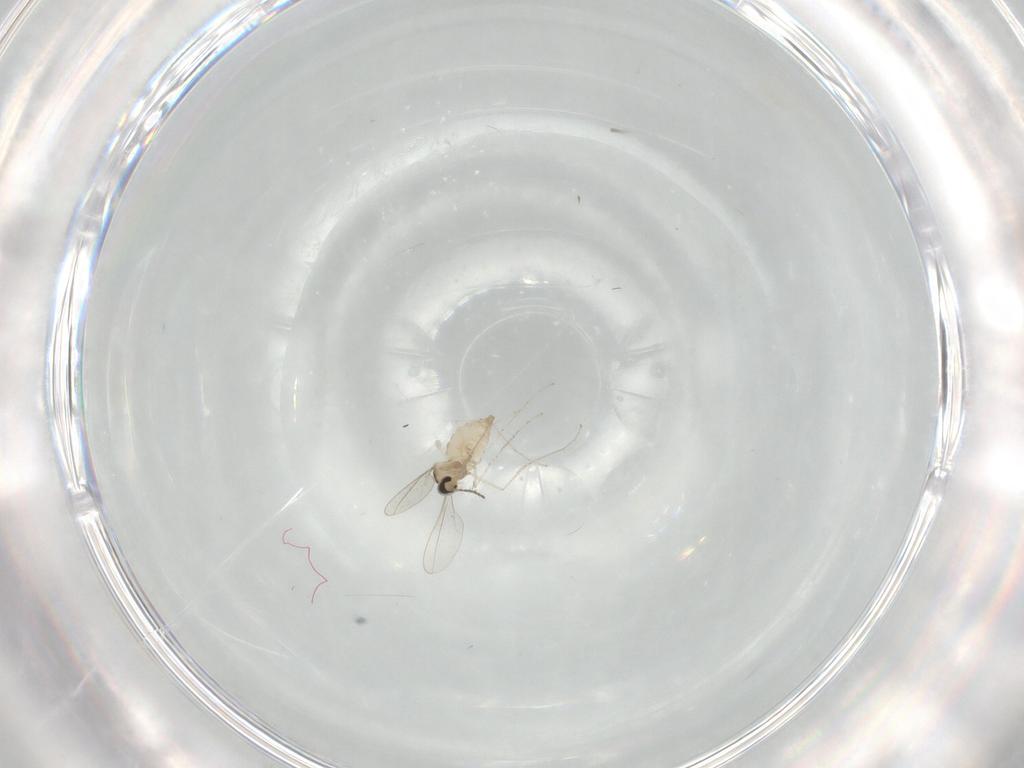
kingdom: Animalia
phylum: Arthropoda
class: Insecta
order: Diptera
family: Cecidomyiidae
